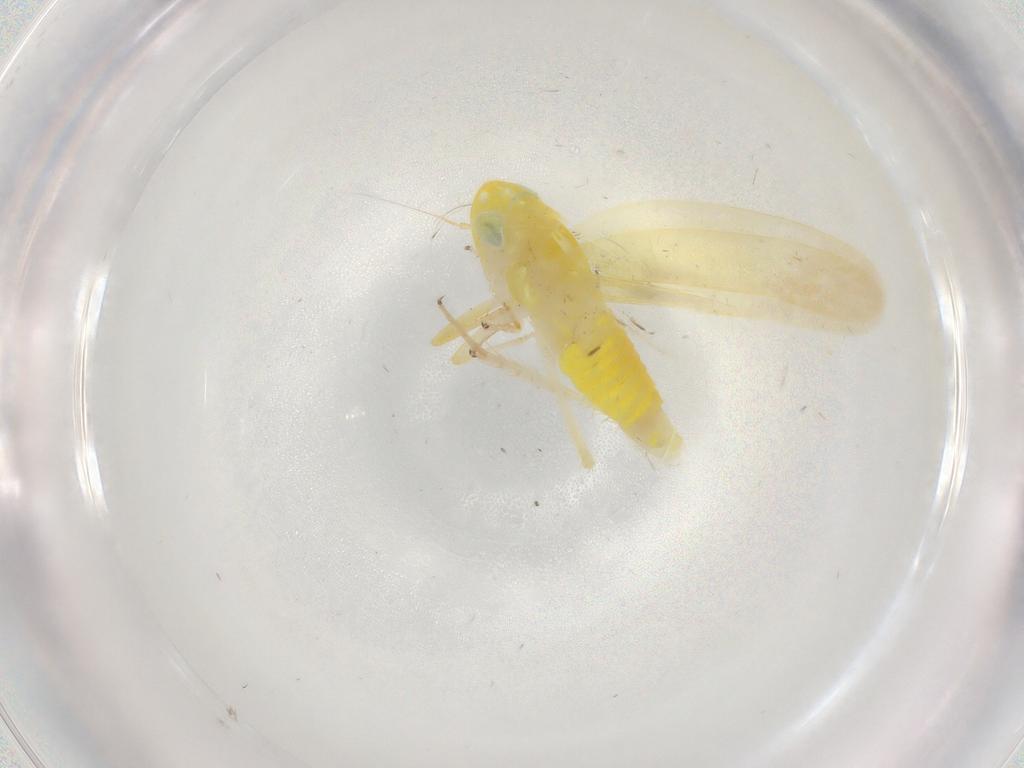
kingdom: Animalia
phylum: Arthropoda
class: Insecta
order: Hemiptera
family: Cicadellidae
